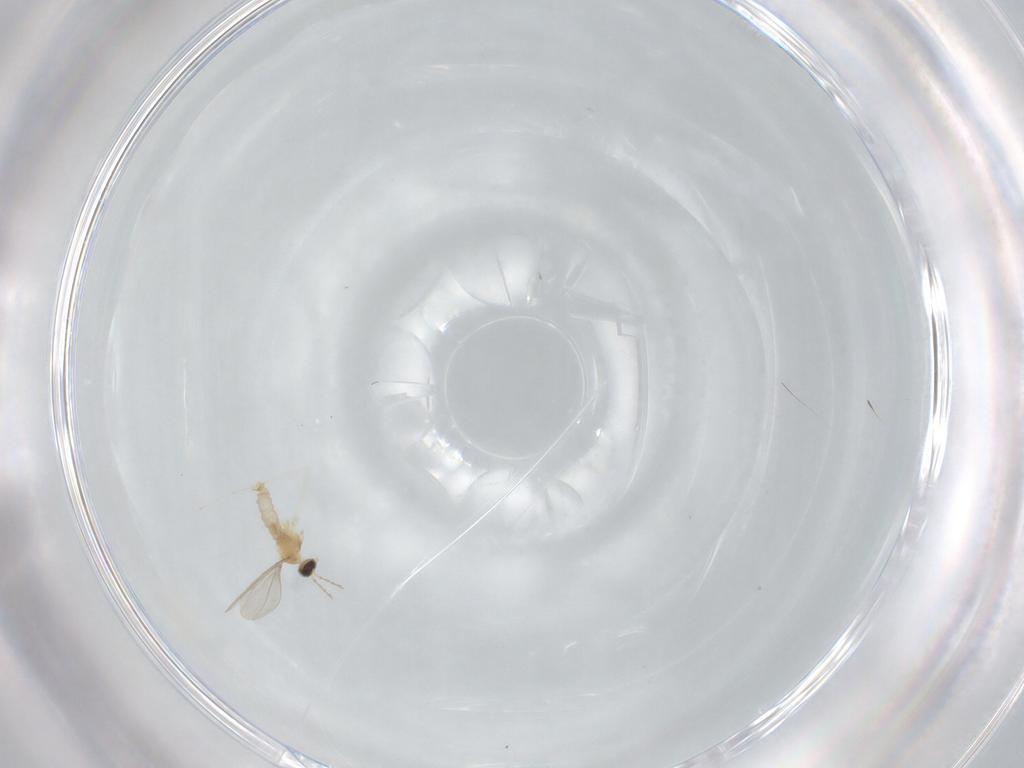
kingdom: Animalia
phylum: Arthropoda
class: Insecta
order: Diptera
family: Cecidomyiidae
